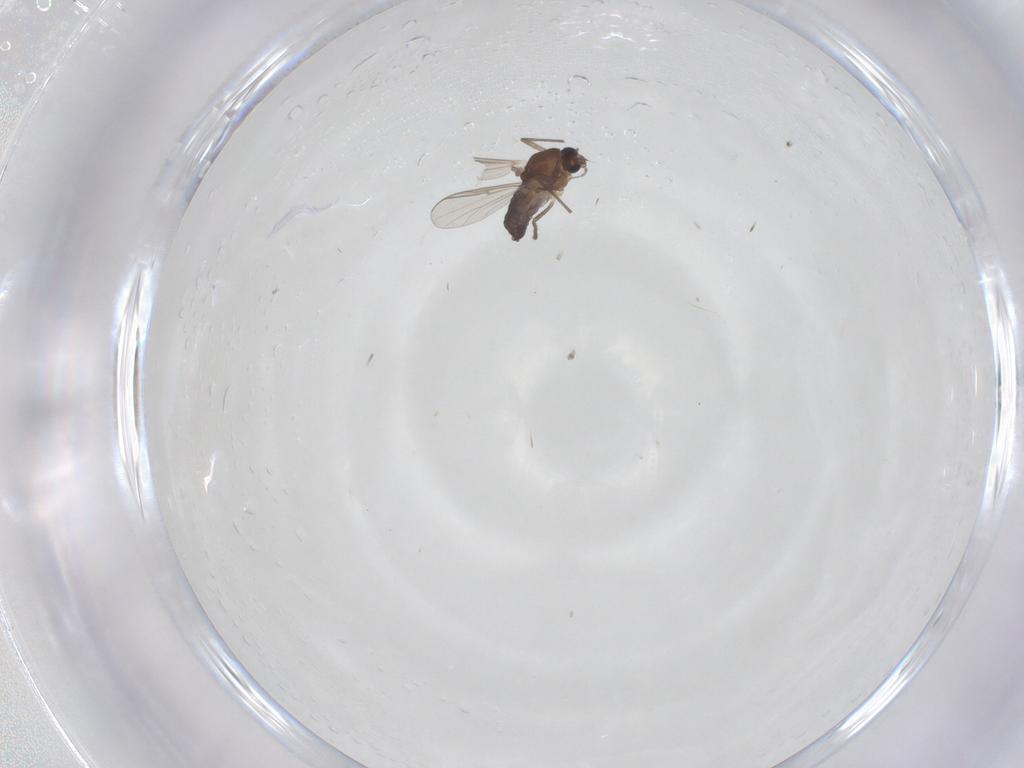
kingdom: Animalia
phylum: Arthropoda
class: Insecta
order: Diptera
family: Chironomidae
